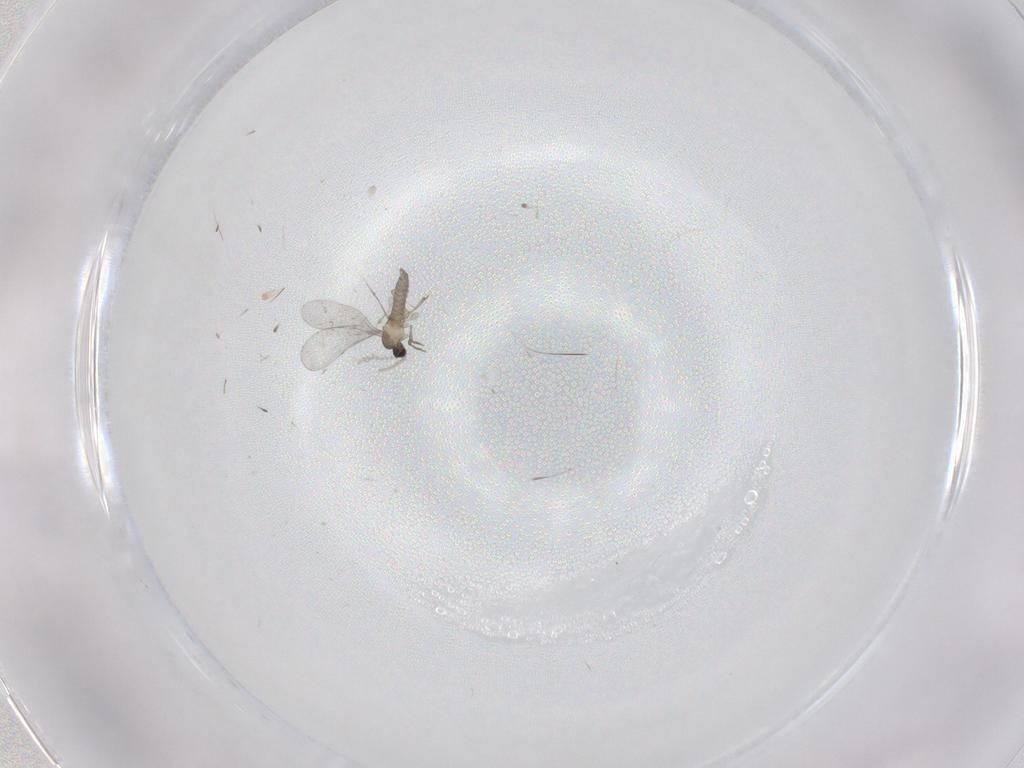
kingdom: Animalia
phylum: Arthropoda
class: Insecta
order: Diptera
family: Cecidomyiidae
